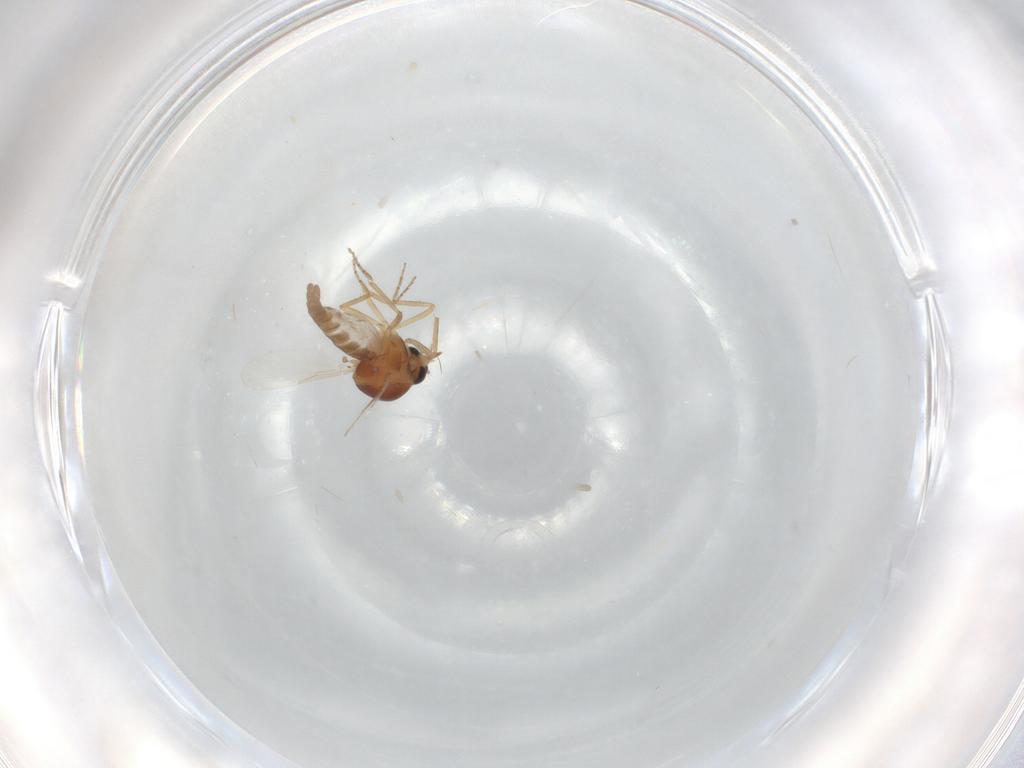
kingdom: Animalia
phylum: Arthropoda
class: Insecta
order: Diptera
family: Ceratopogonidae
